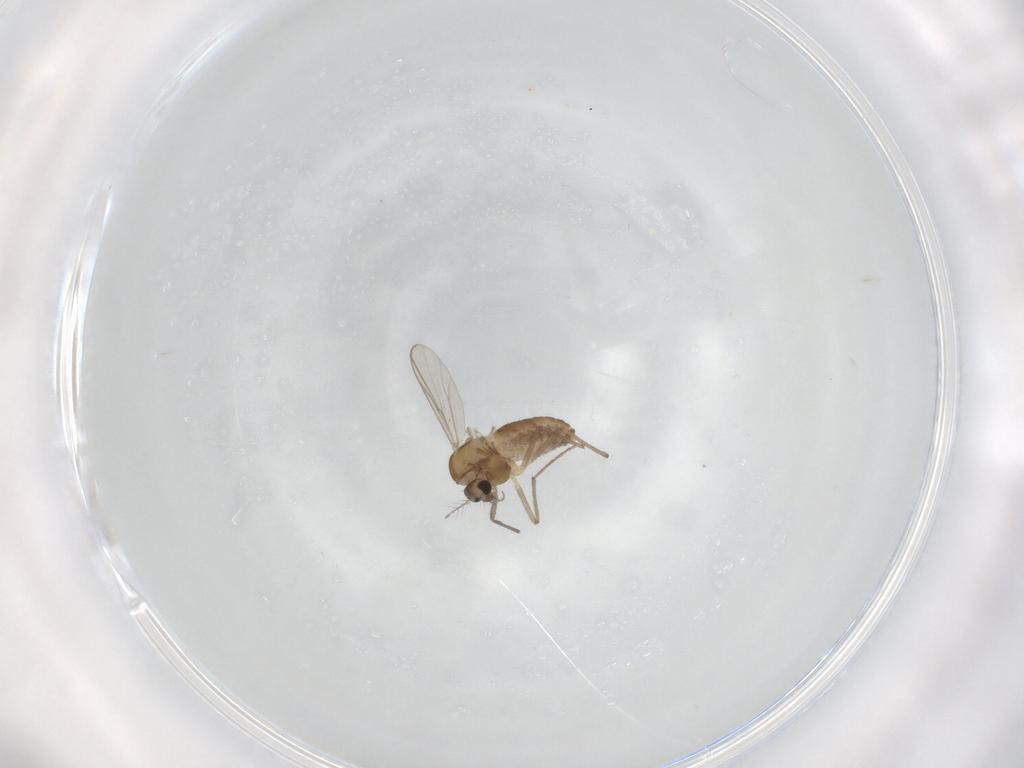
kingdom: Animalia
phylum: Arthropoda
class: Insecta
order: Diptera
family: Chironomidae
